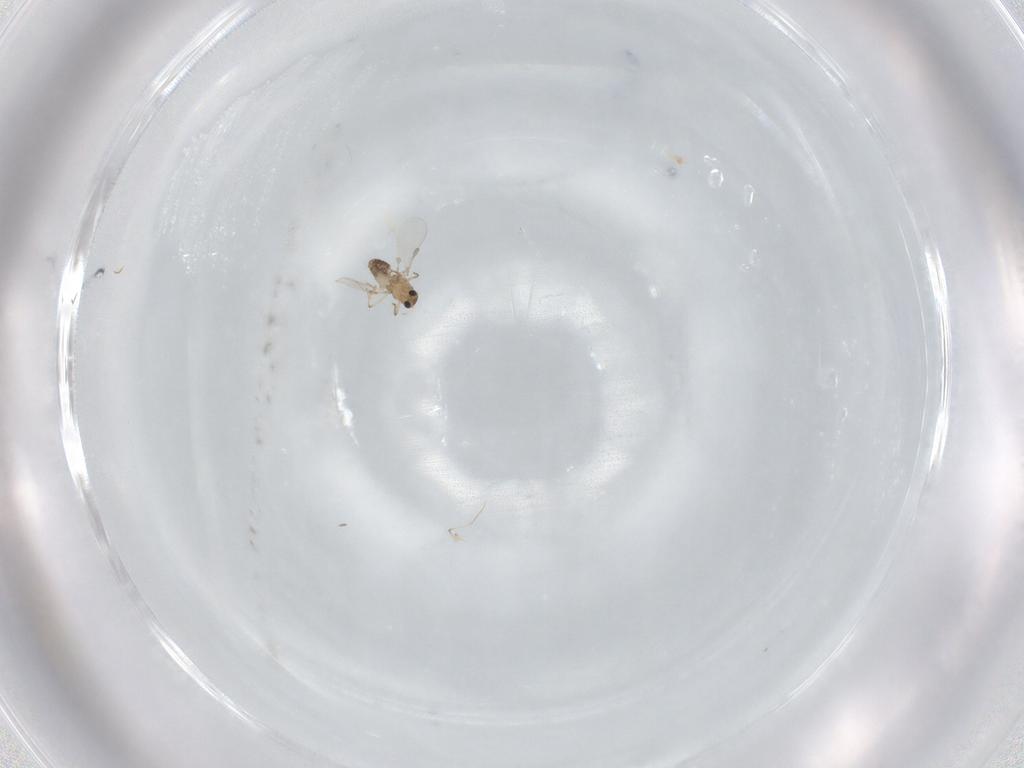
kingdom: Animalia
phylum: Arthropoda
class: Insecta
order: Diptera
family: Chironomidae
